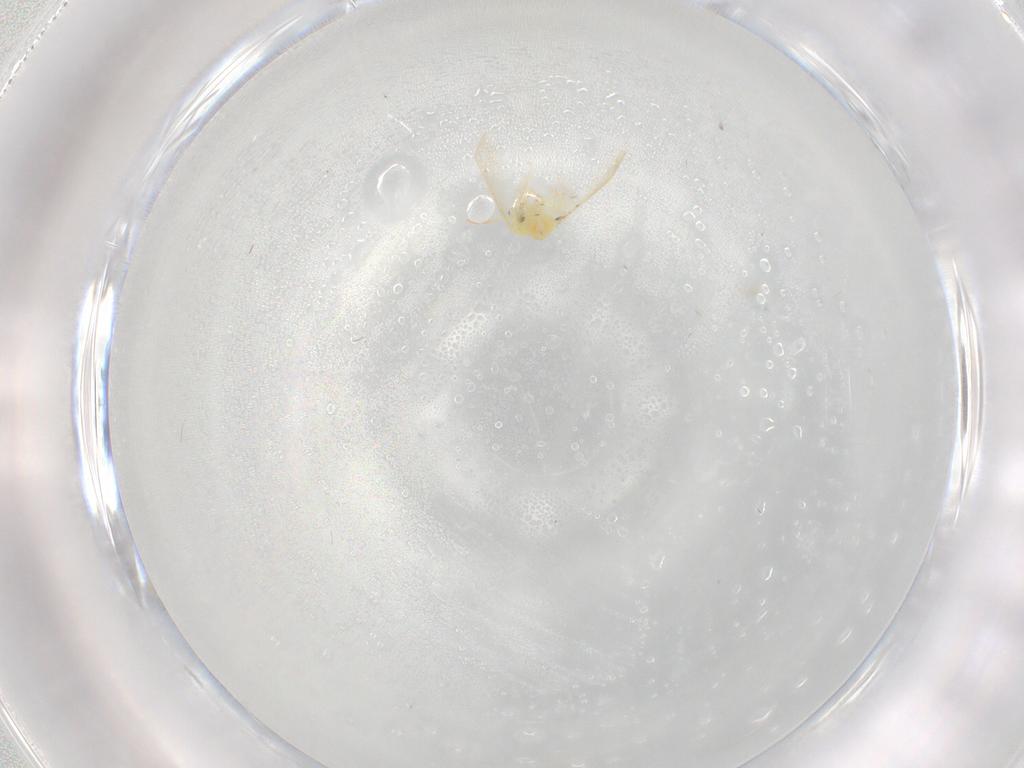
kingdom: Animalia
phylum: Arthropoda
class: Insecta
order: Hemiptera
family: Aleyrodidae
